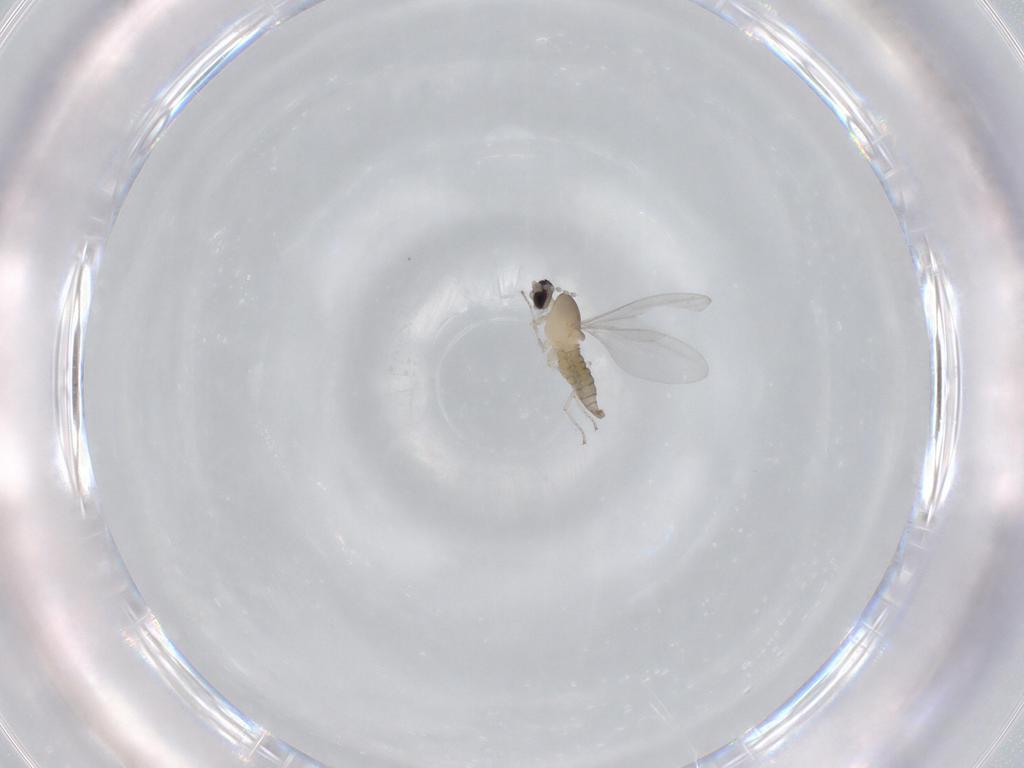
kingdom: Animalia
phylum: Arthropoda
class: Insecta
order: Diptera
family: Cecidomyiidae
